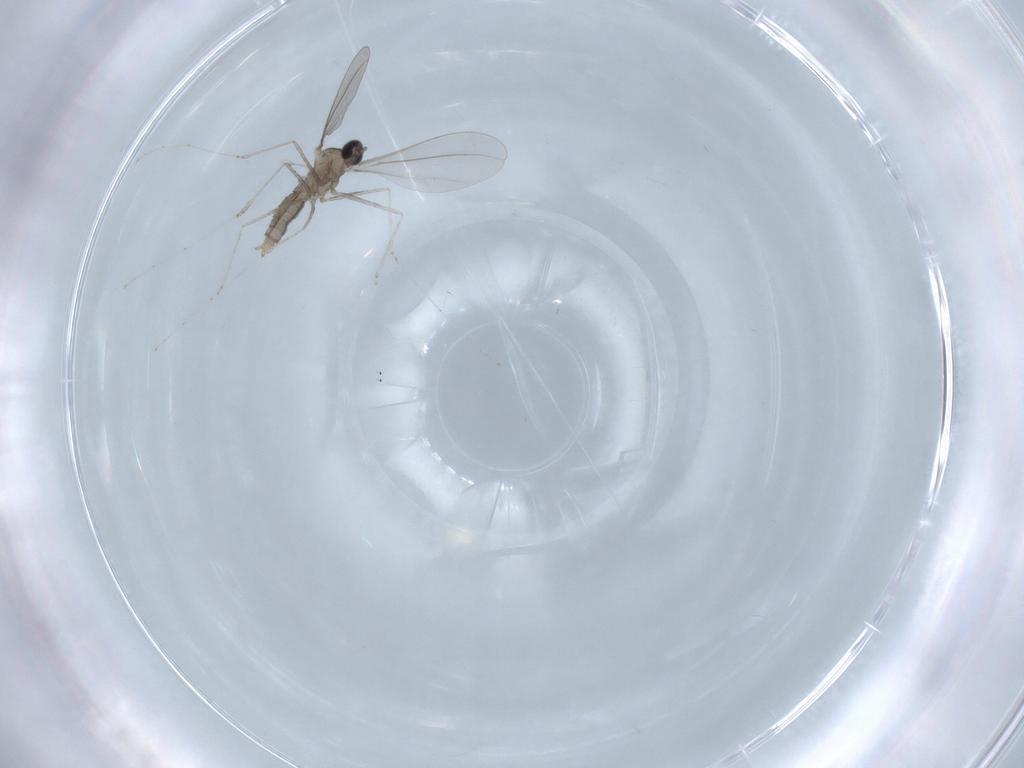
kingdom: Animalia
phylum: Arthropoda
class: Insecta
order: Diptera
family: Cecidomyiidae
